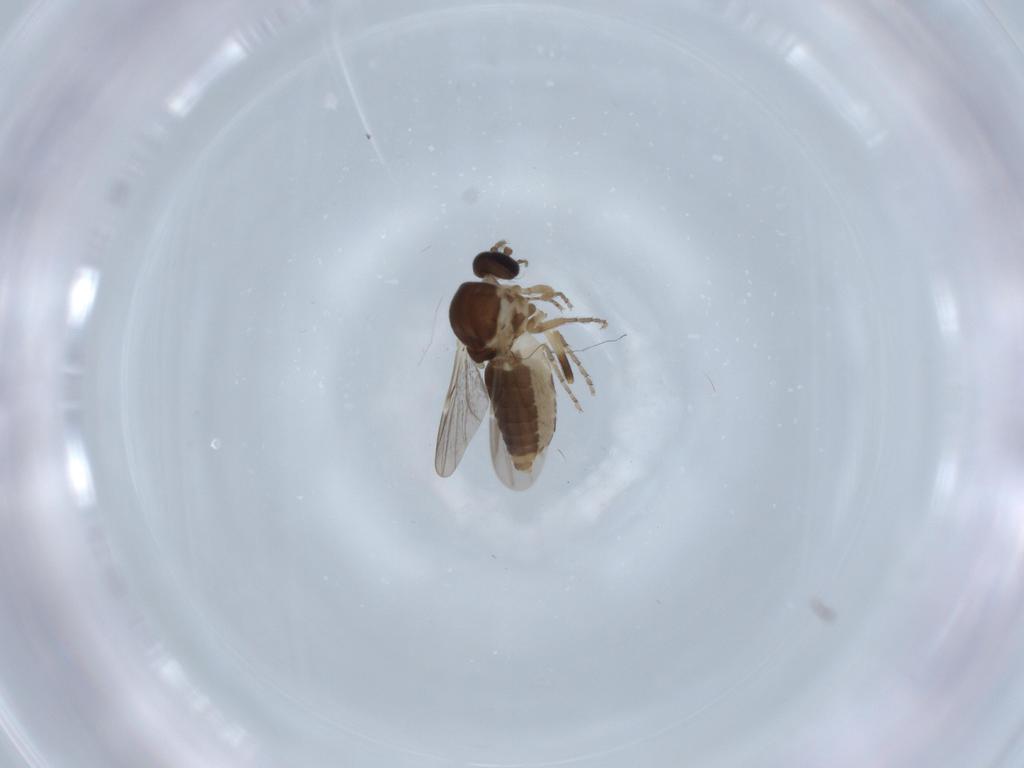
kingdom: Animalia
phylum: Arthropoda
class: Insecta
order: Diptera
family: Ceratopogonidae
